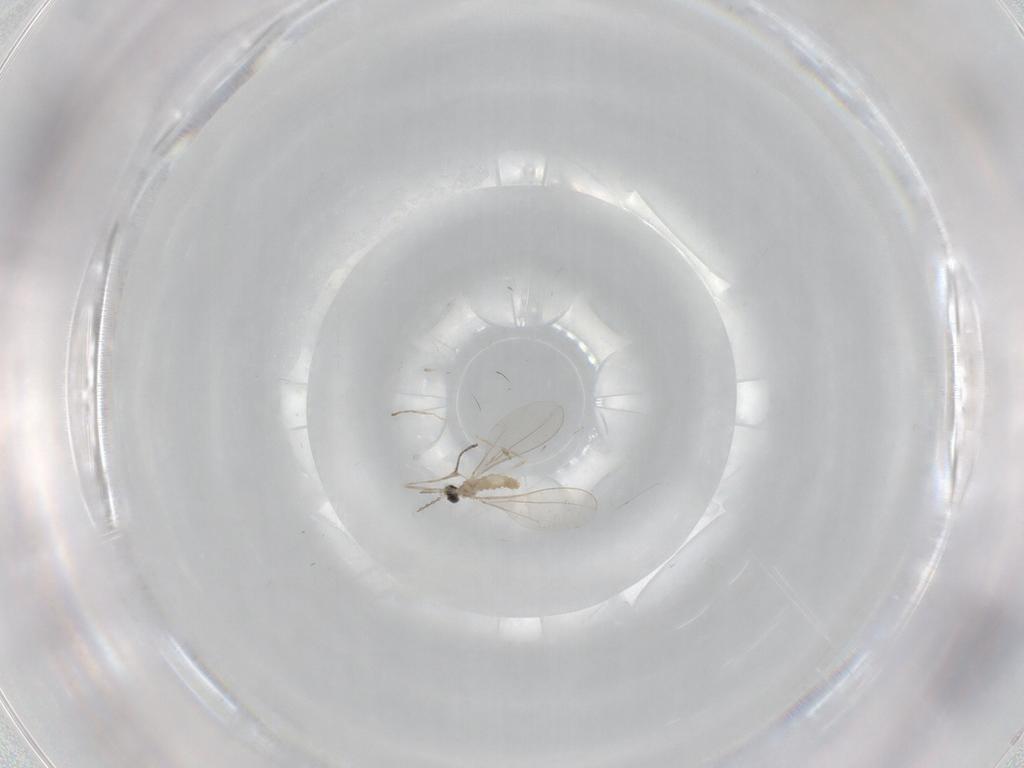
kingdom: Animalia
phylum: Arthropoda
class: Insecta
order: Diptera
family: Cecidomyiidae
